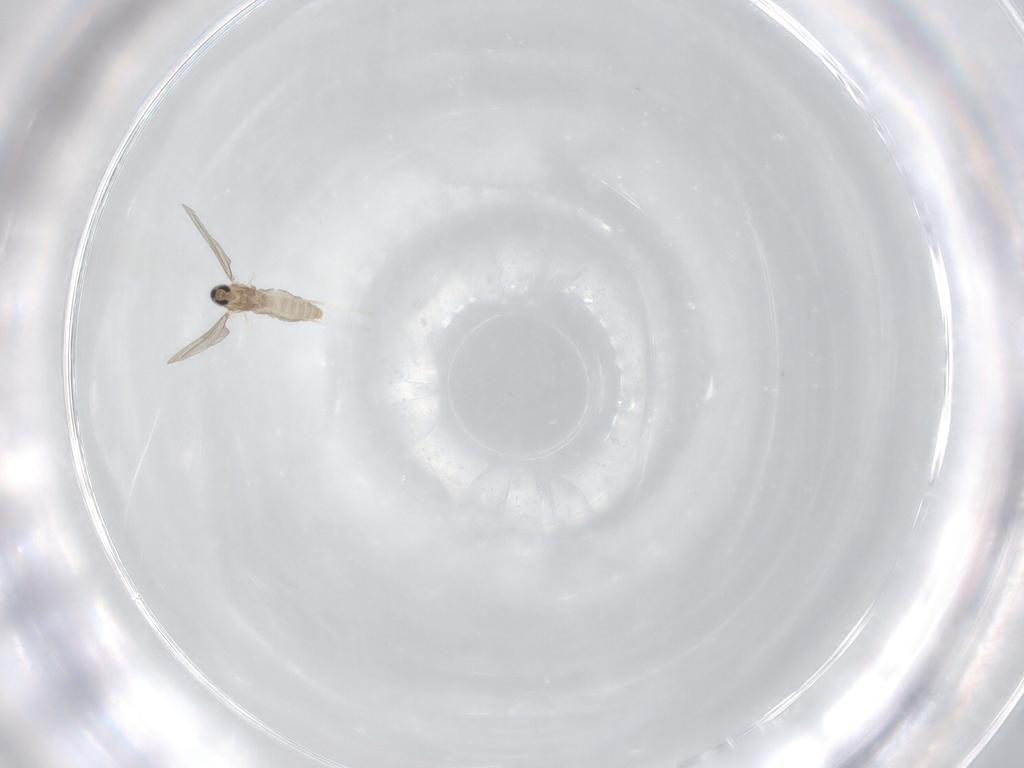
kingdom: Animalia
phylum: Arthropoda
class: Insecta
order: Diptera
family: Cecidomyiidae
